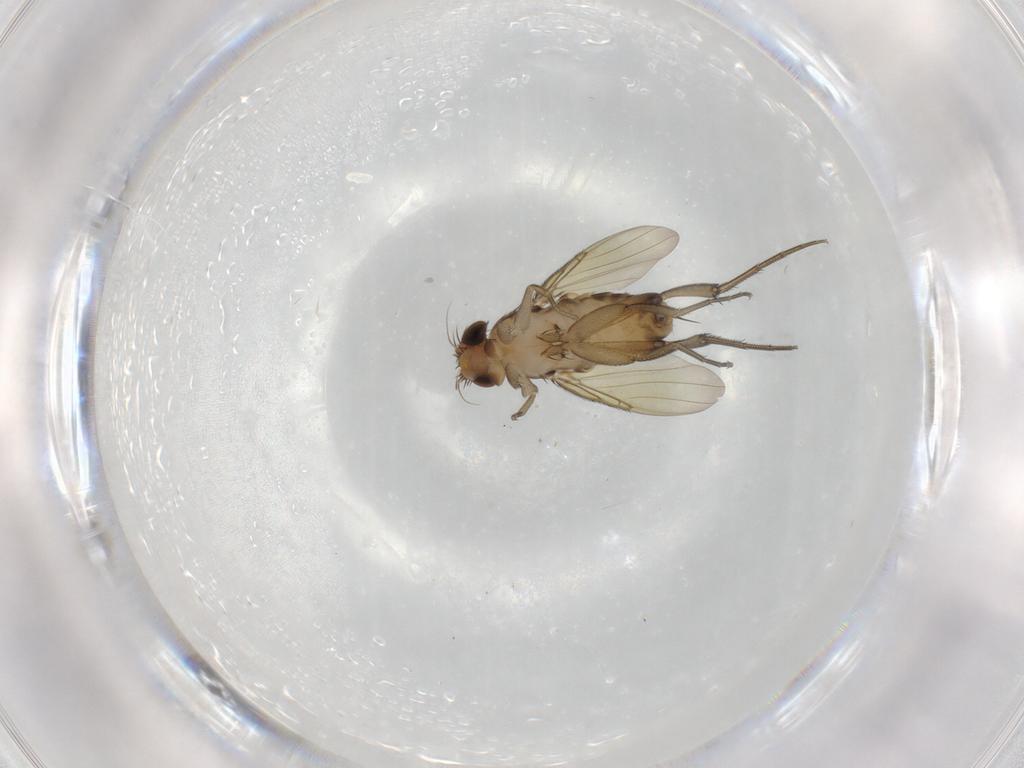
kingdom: Animalia
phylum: Arthropoda
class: Insecta
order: Diptera
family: Phoridae
